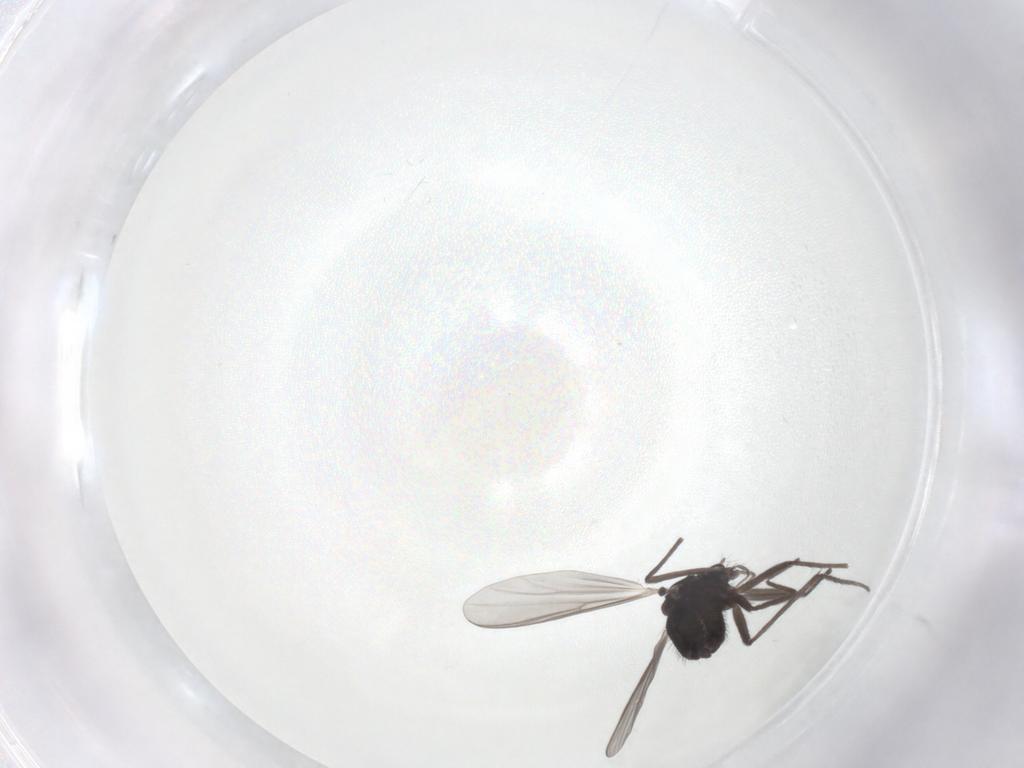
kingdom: Animalia
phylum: Arthropoda
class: Insecta
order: Diptera
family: Chironomidae
